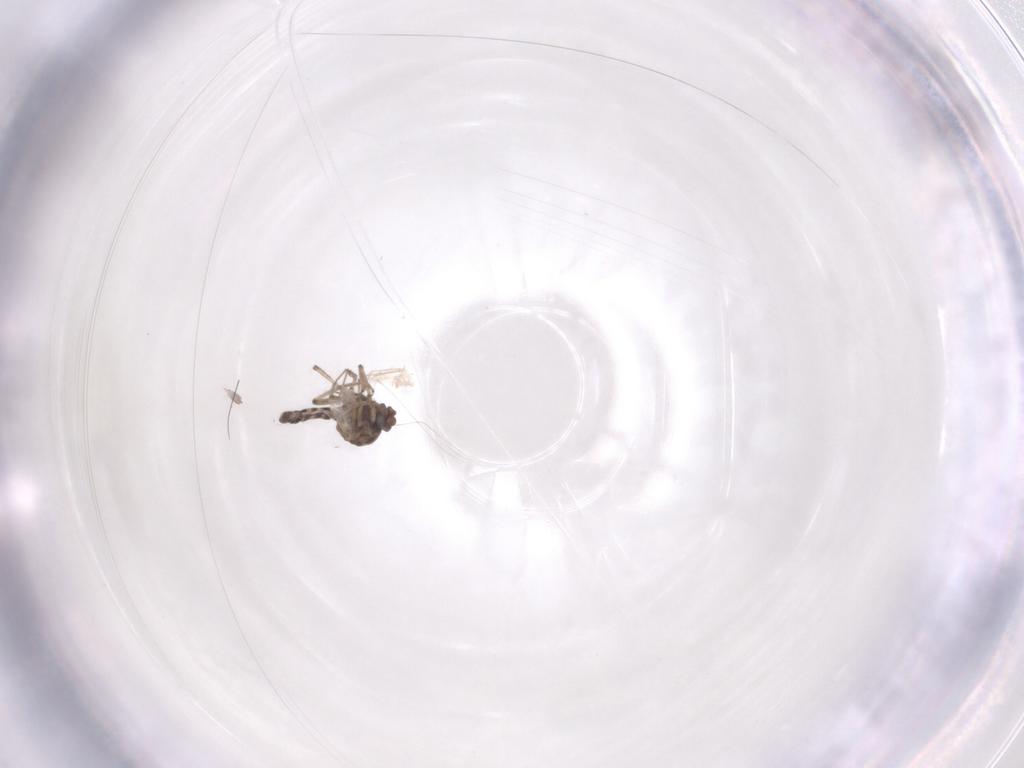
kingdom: Animalia
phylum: Arthropoda
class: Insecta
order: Diptera
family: Ceratopogonidae
